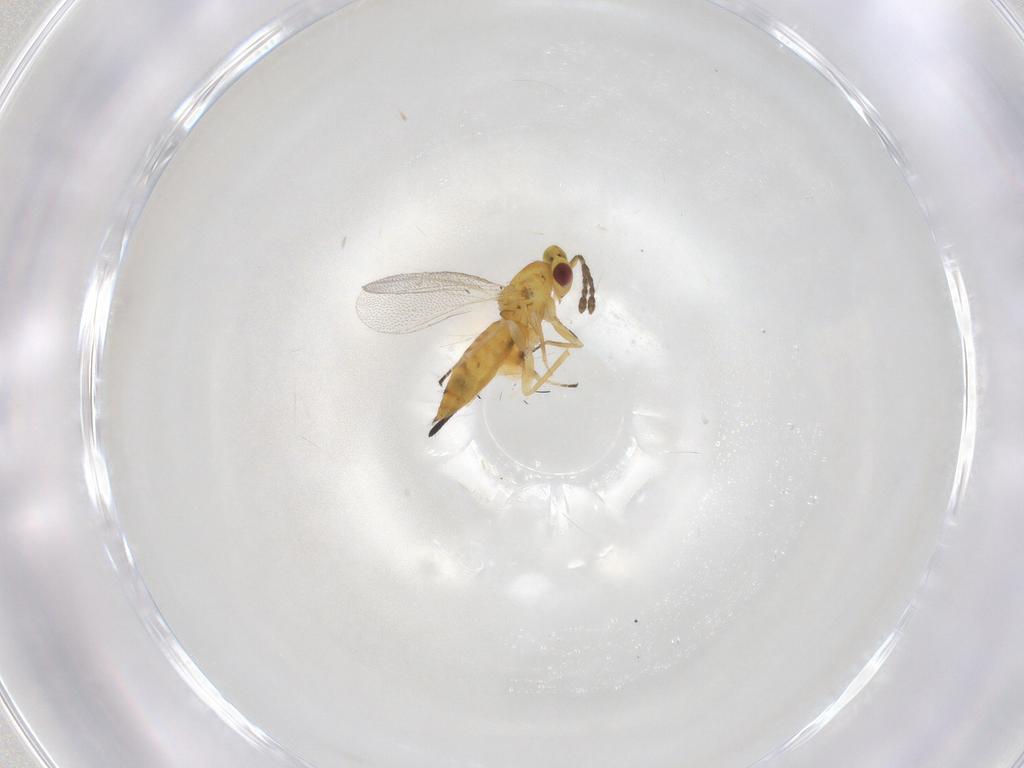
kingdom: Animalia
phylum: Arthropoda
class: Insecta
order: Hymenoptera
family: Eulophidae
